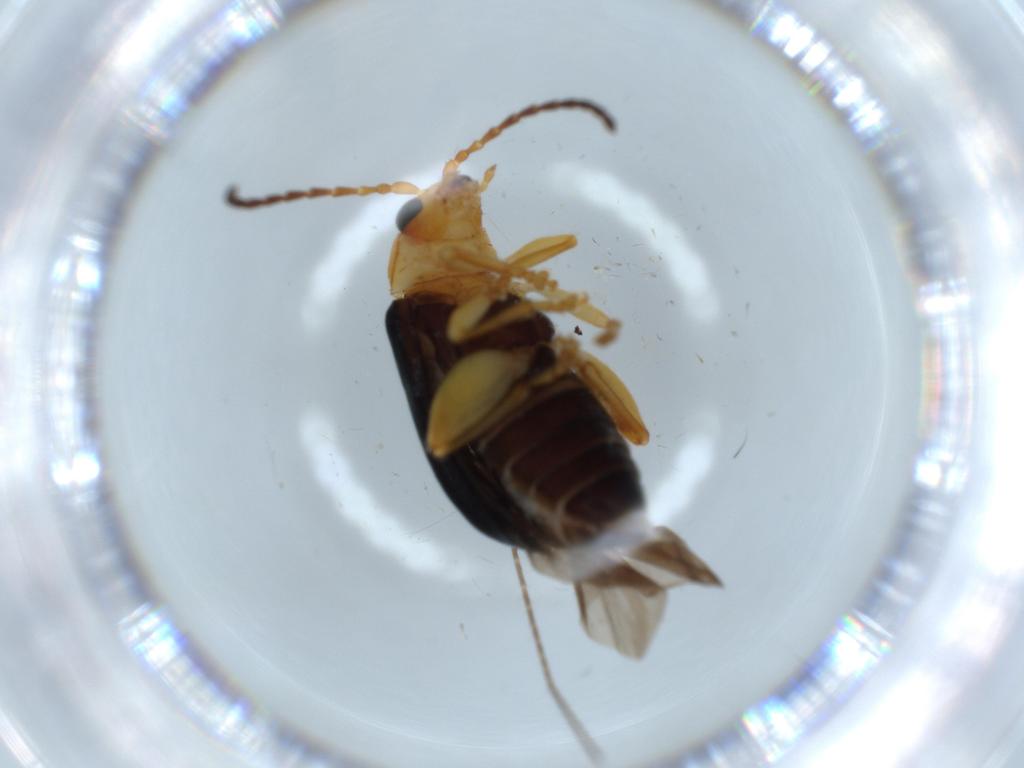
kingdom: Animalia
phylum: Arthropoda
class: Insecta
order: Coleoptera
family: Chrysomelidae
